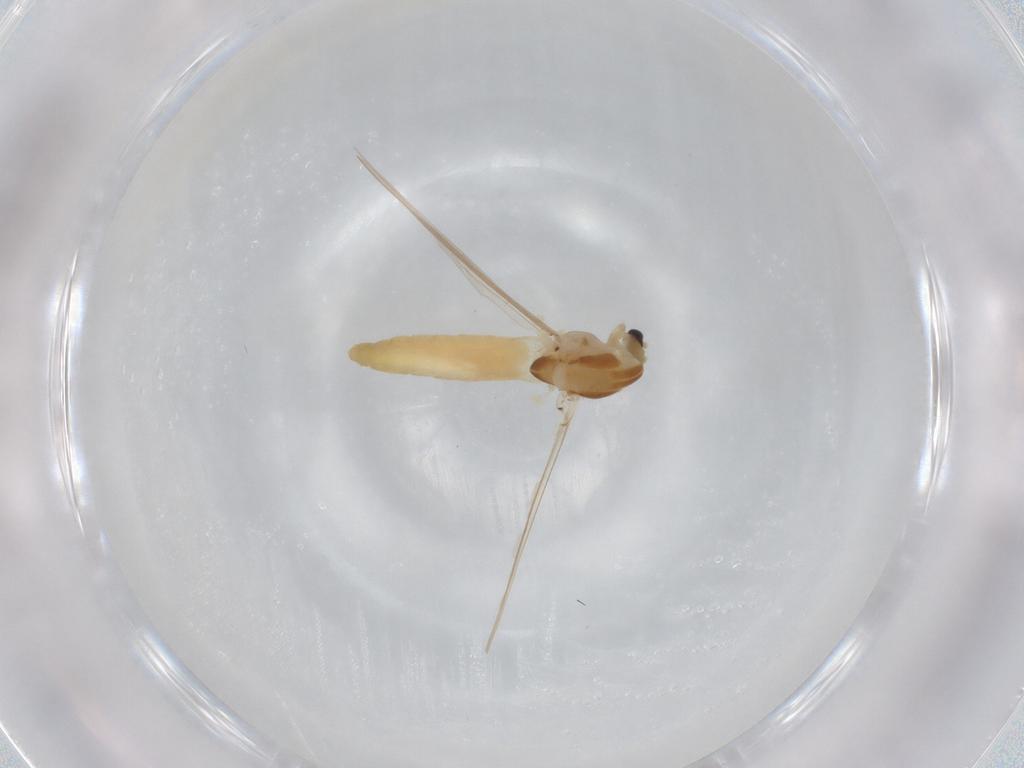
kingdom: Animalia
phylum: Arthropoda
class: Insecta
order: Diptera
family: Chironomidae
